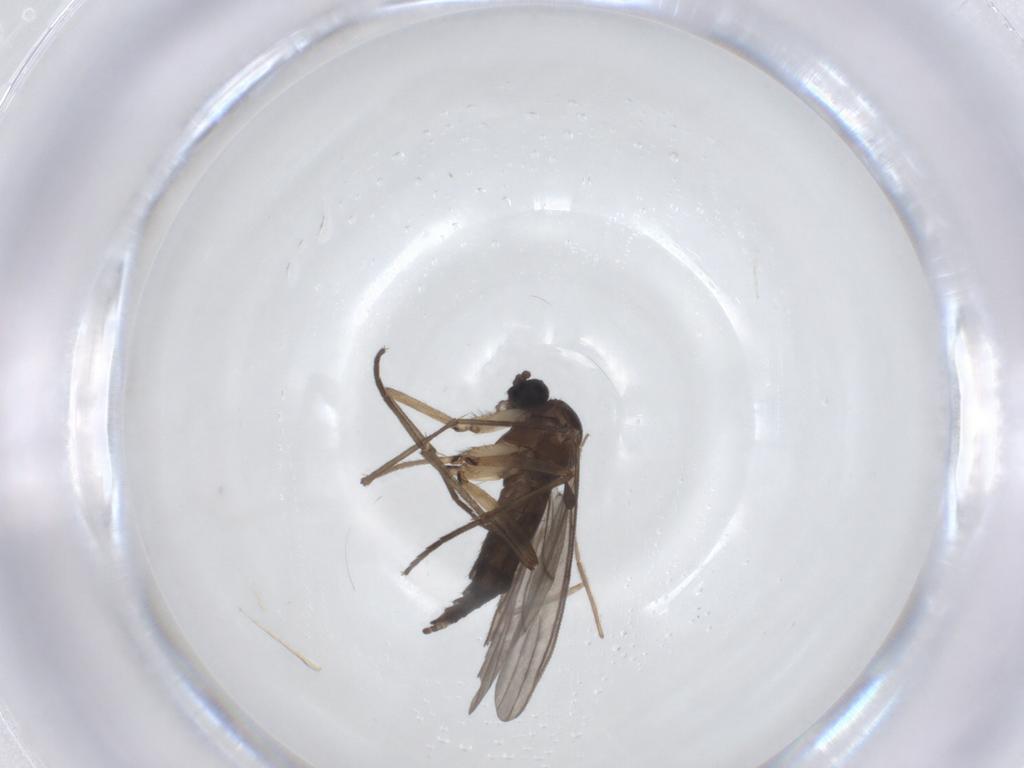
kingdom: Animalia
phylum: Arthropoda
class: Insecta
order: Diptera
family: Sciaridae
